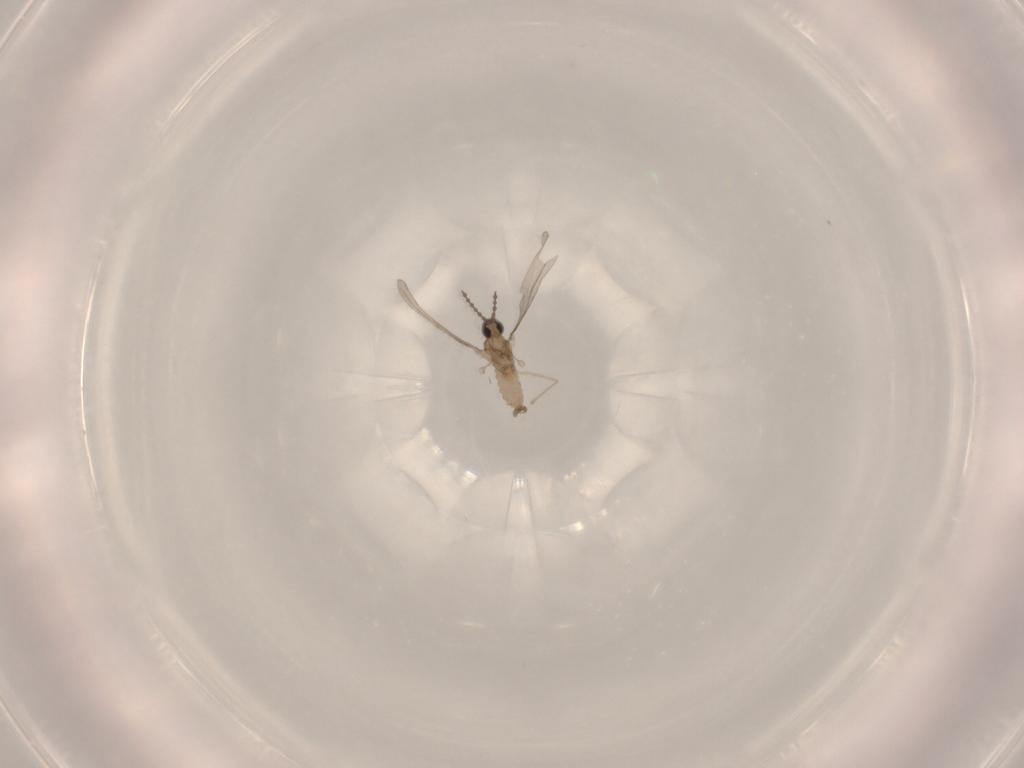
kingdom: Animalia
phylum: Arthropoda
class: Insecta
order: Diptera
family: Cecidomyiidae
